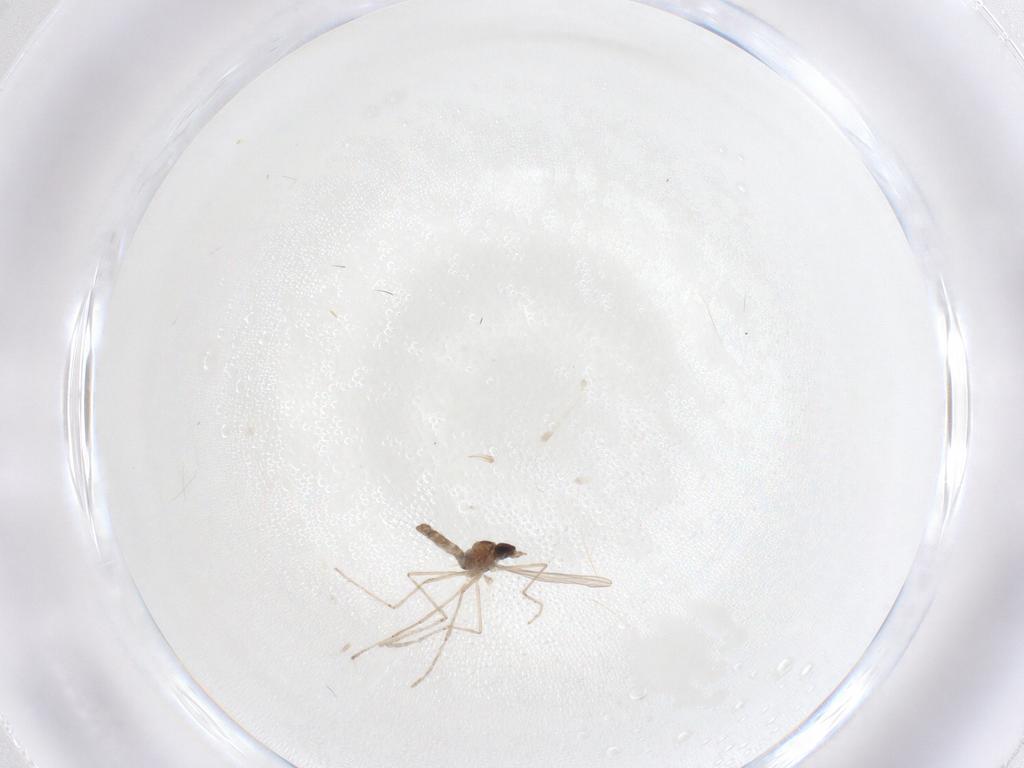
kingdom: Animalia
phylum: Arthropoda
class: Insecta
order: Diptera
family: Cecidomyiidae
